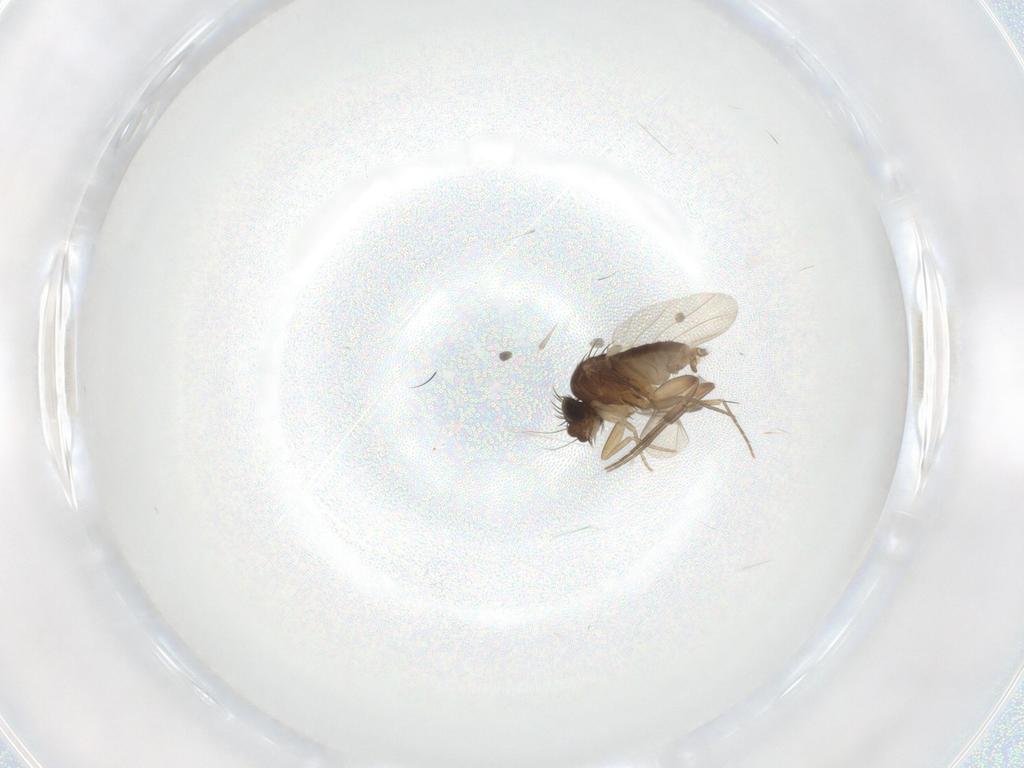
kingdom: Animalia
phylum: Arthropoda
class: Insecta
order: Diptera
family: Phoridae
